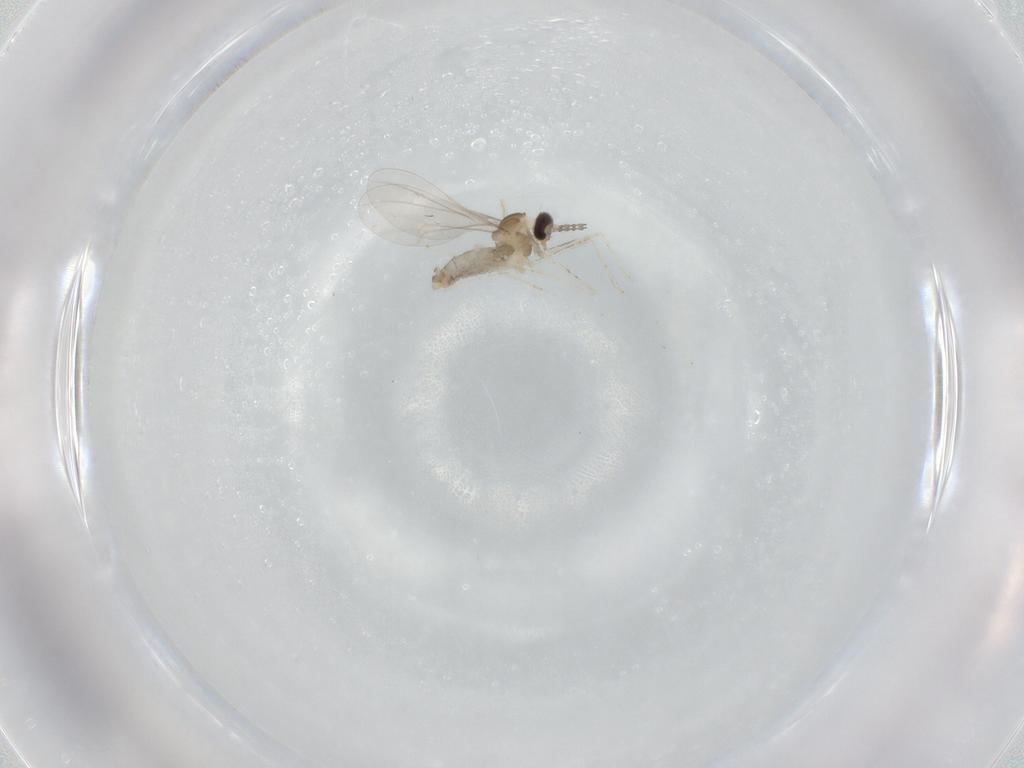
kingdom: Animalia
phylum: Arthropoda
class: Insecta
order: Diptera
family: Cecidomyiidae
